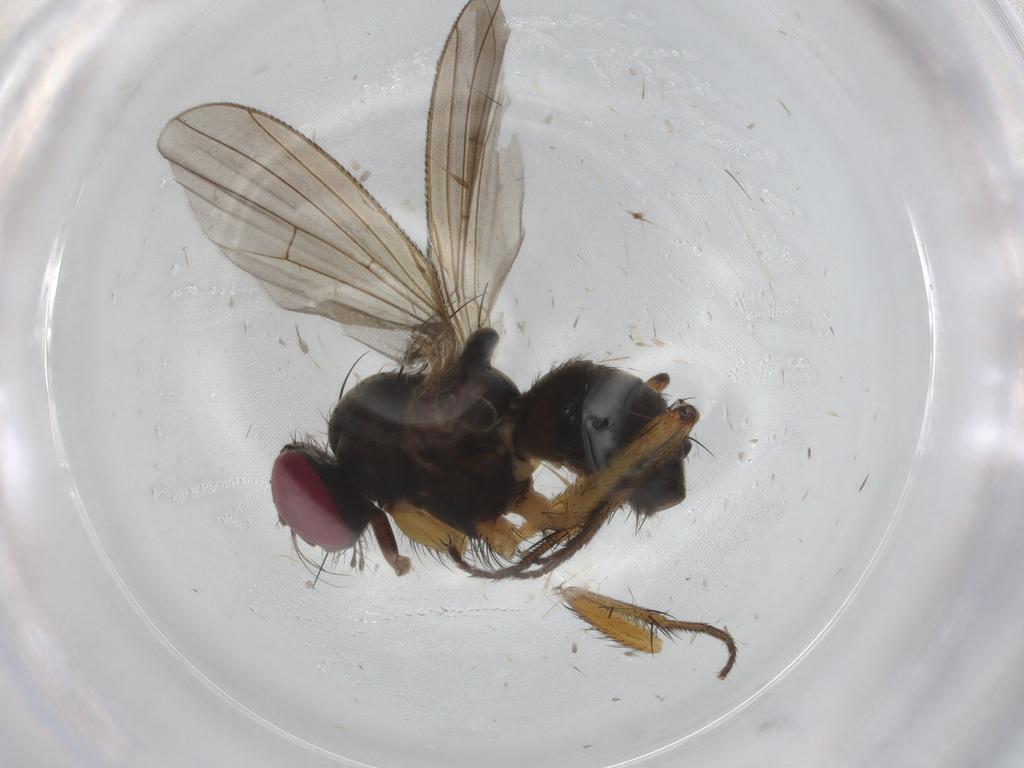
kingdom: Animalia
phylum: Arthropoda
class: Insecta
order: Diptera
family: Muscidae
